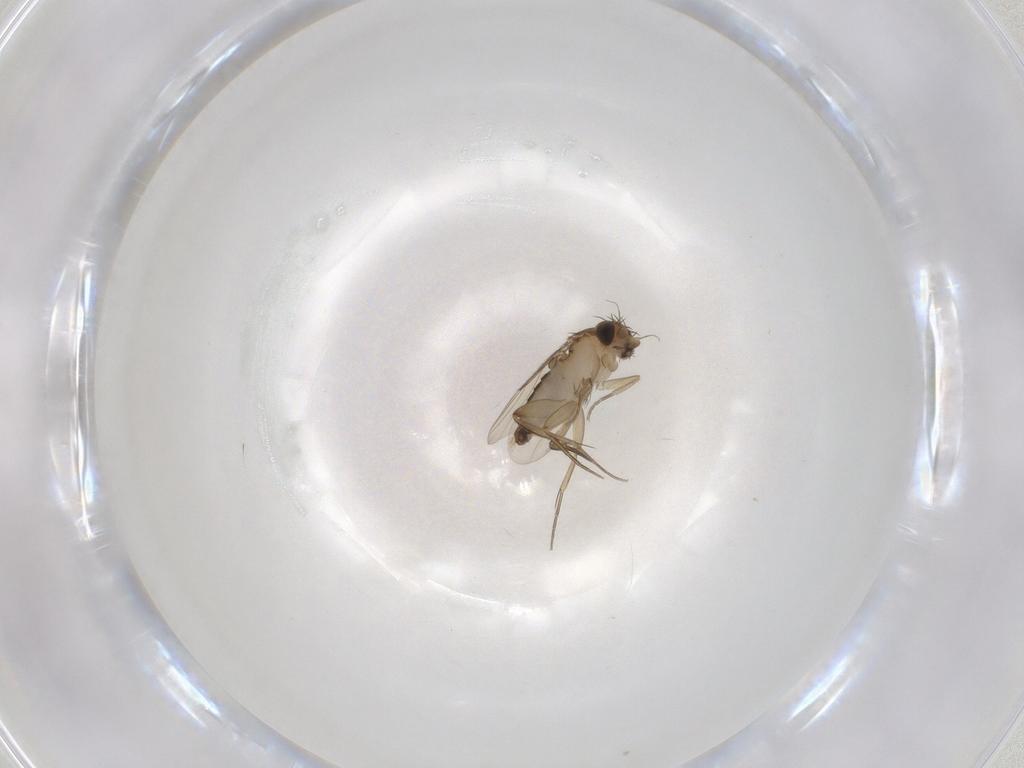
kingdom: Animalia
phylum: Arthropoda
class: Insecta
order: Diptera
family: Phoridae
